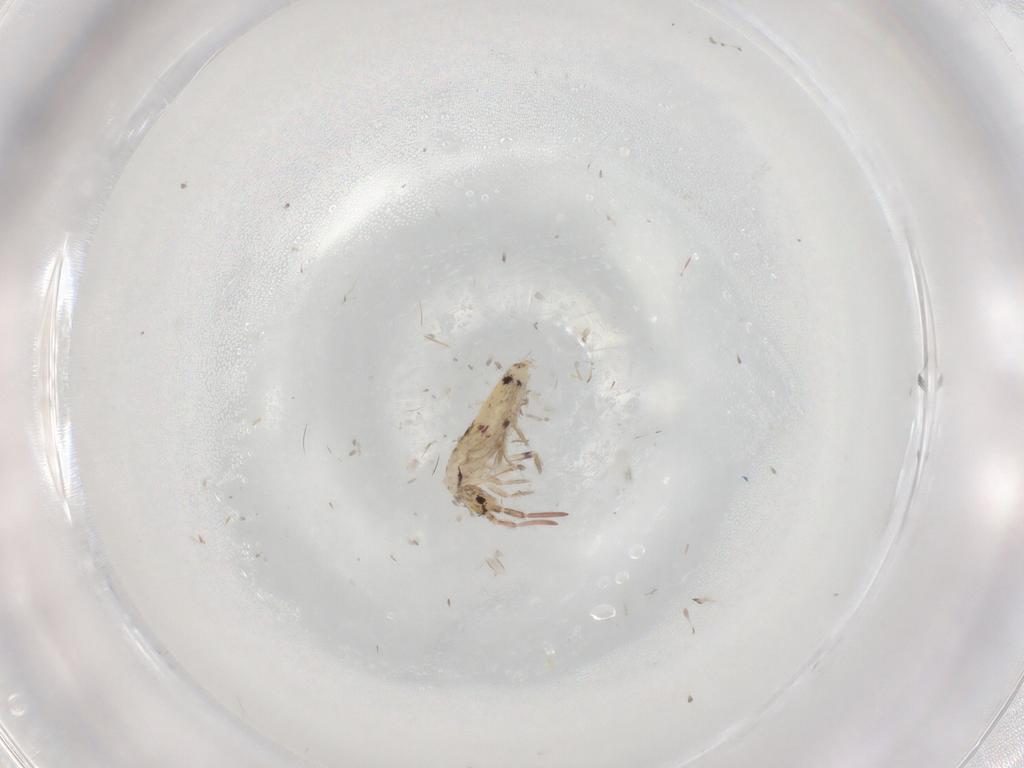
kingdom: Animalia
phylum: Arthropoda
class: Collembola
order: Entomobryomorpha
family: Entomobryidae
